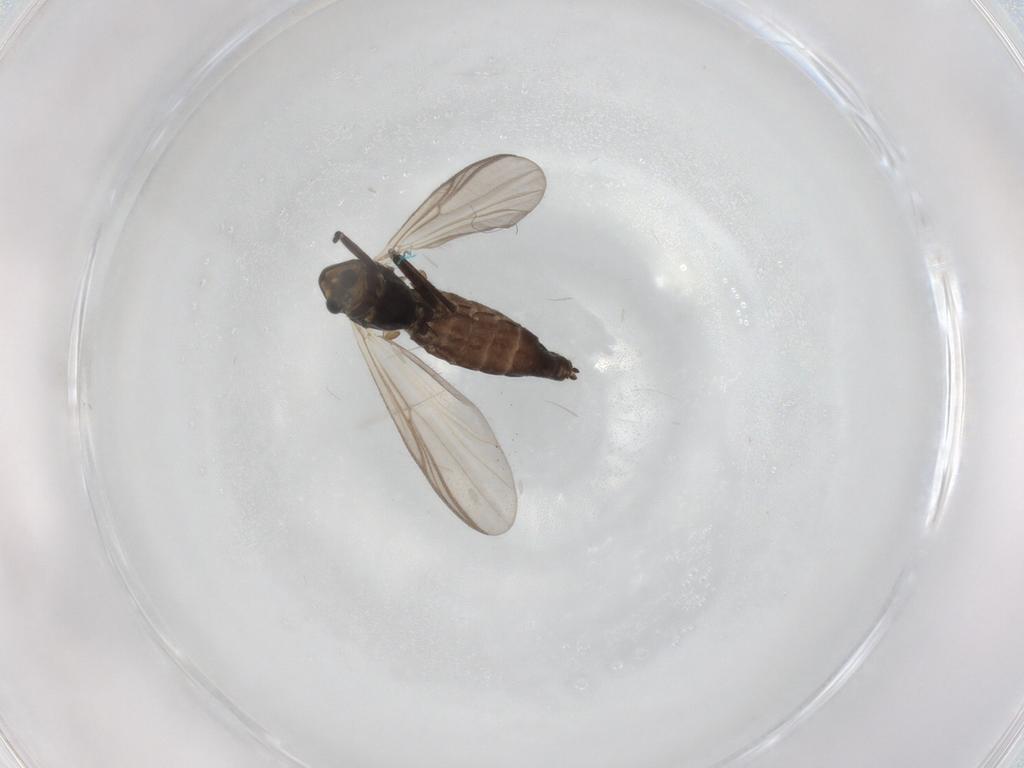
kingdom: Animalia
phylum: Arthropoda
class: Insecta
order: Diptera
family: Chironomidae
